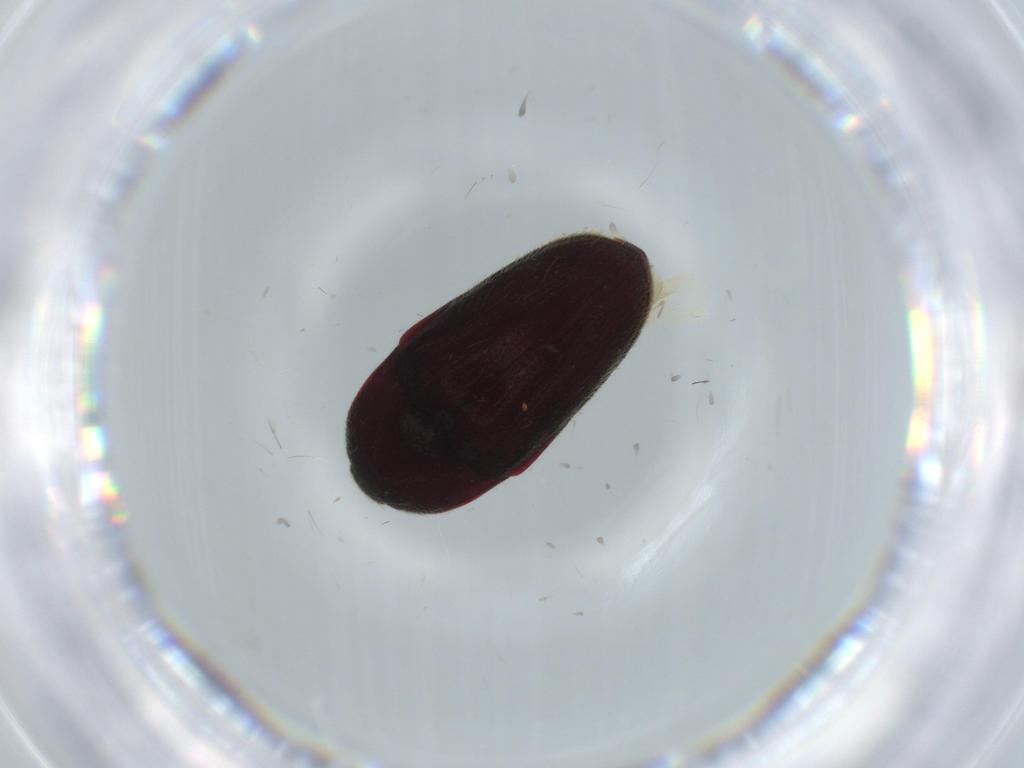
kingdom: Animalia
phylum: Arthropoda
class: Insecta
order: Coleoptera
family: Throscidae
